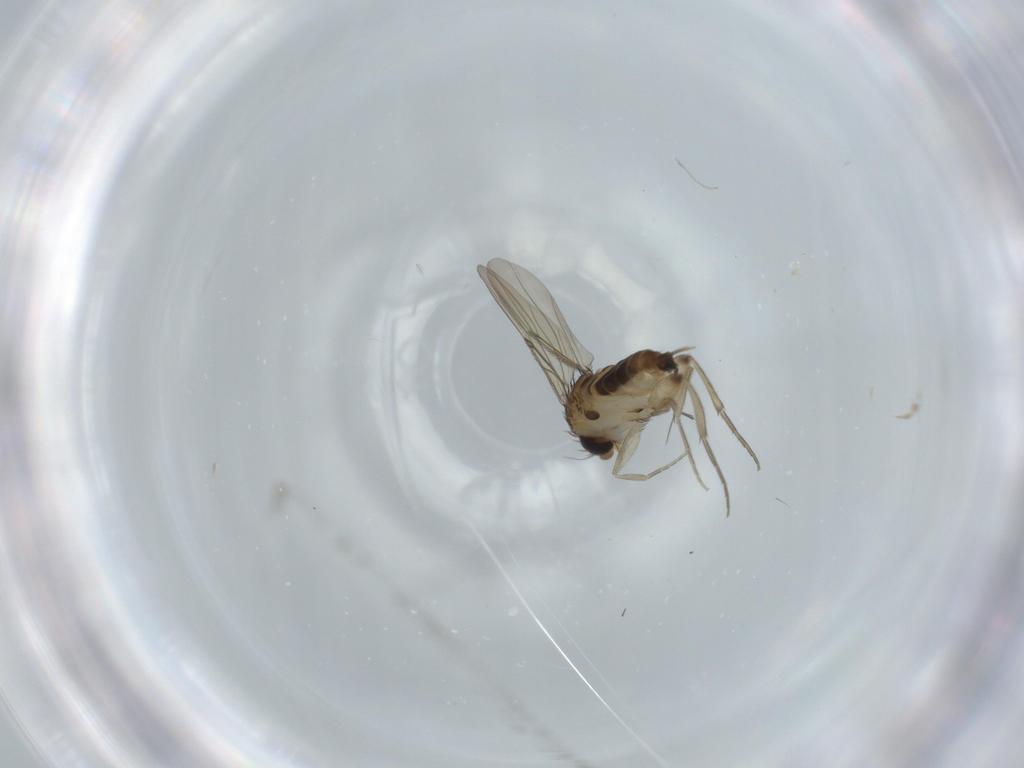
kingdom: Animalia
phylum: Arthropoda
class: Insecta
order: Diptera
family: Phoridae
